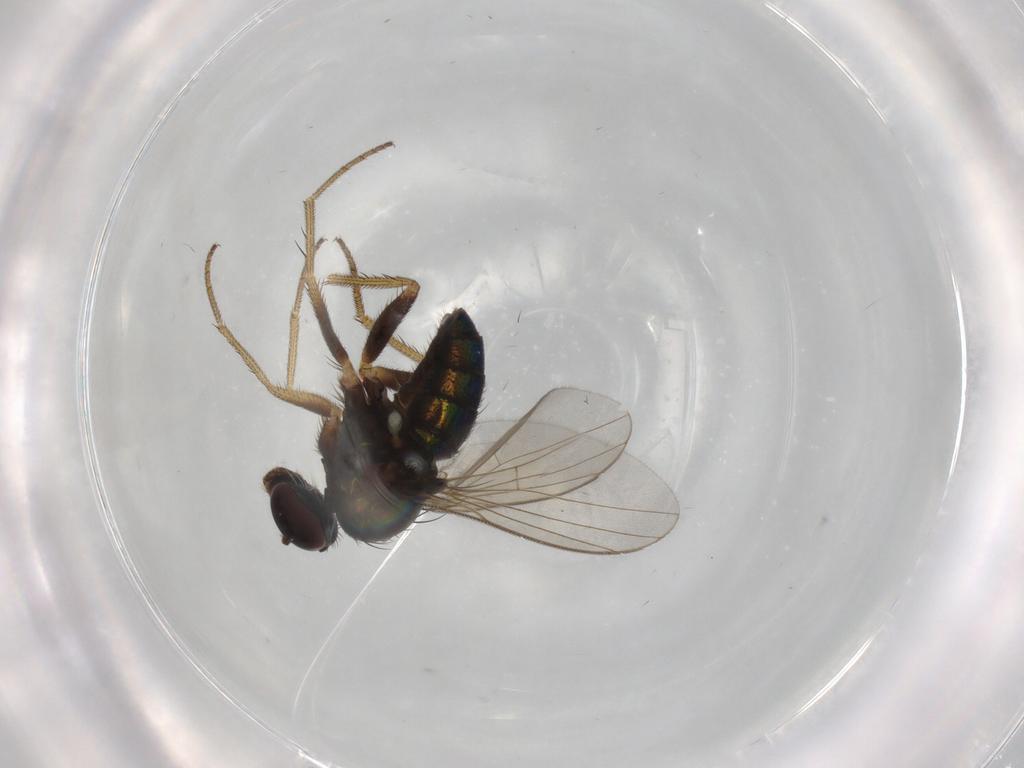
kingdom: Animalia
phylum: Arthropoda
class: Insecta
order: Diptera
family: Dolichopodidae
